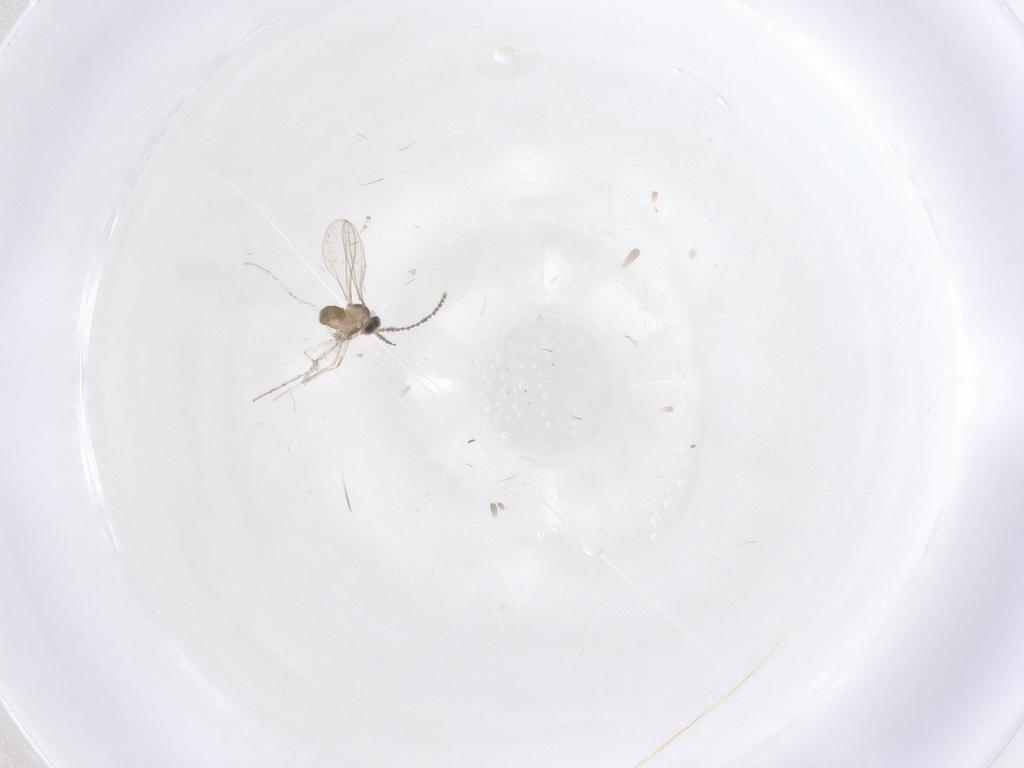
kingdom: Animalia
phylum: Arthropoda
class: Insecta
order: Diptera
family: Cecidomyiidae
